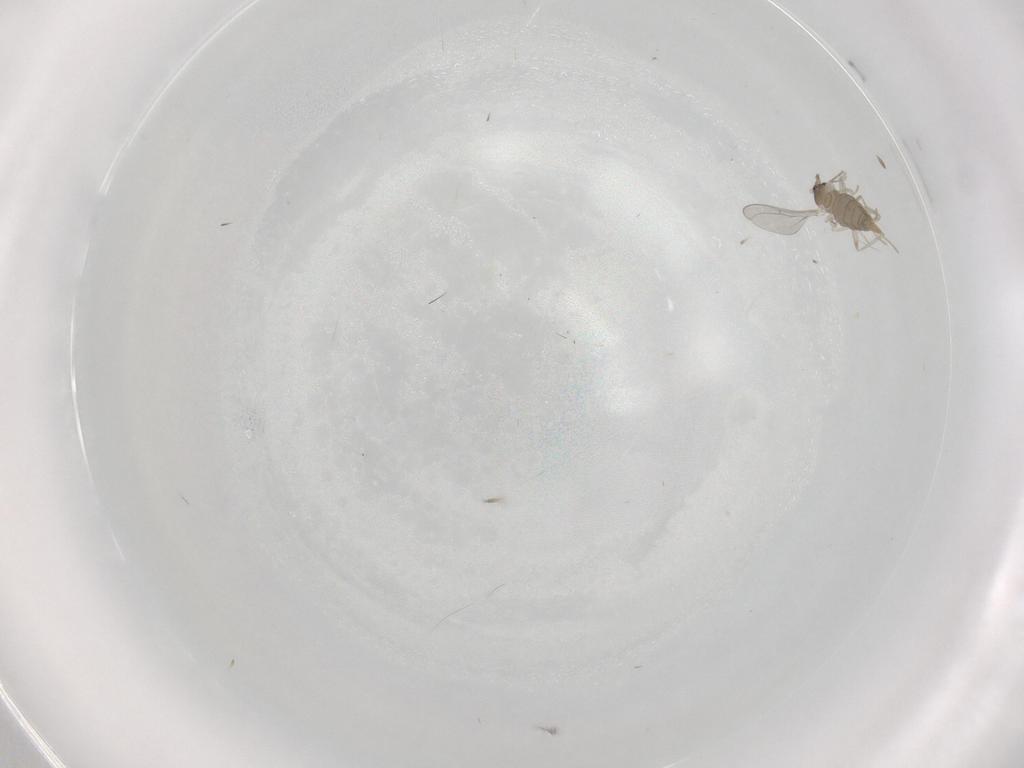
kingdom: Animalia
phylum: Arthropoda
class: Insecta
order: Diptera
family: Cecidomyiidae
